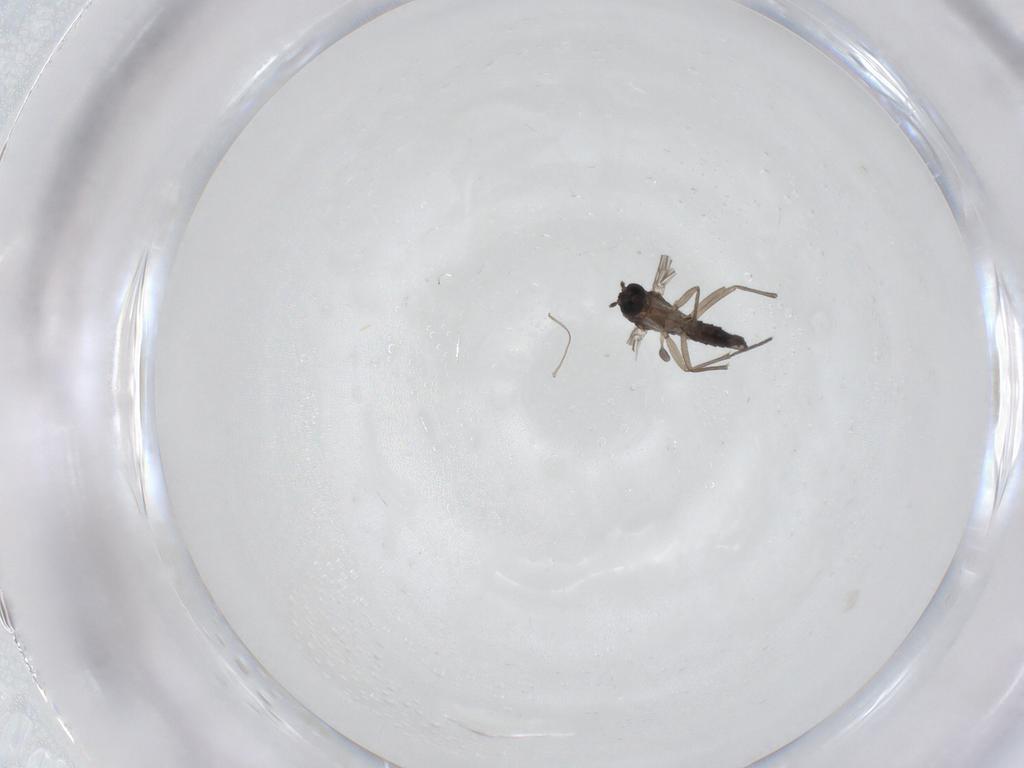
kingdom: Animalia
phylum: Arthropoda
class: Insecta
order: Diptera
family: Sciaridae
